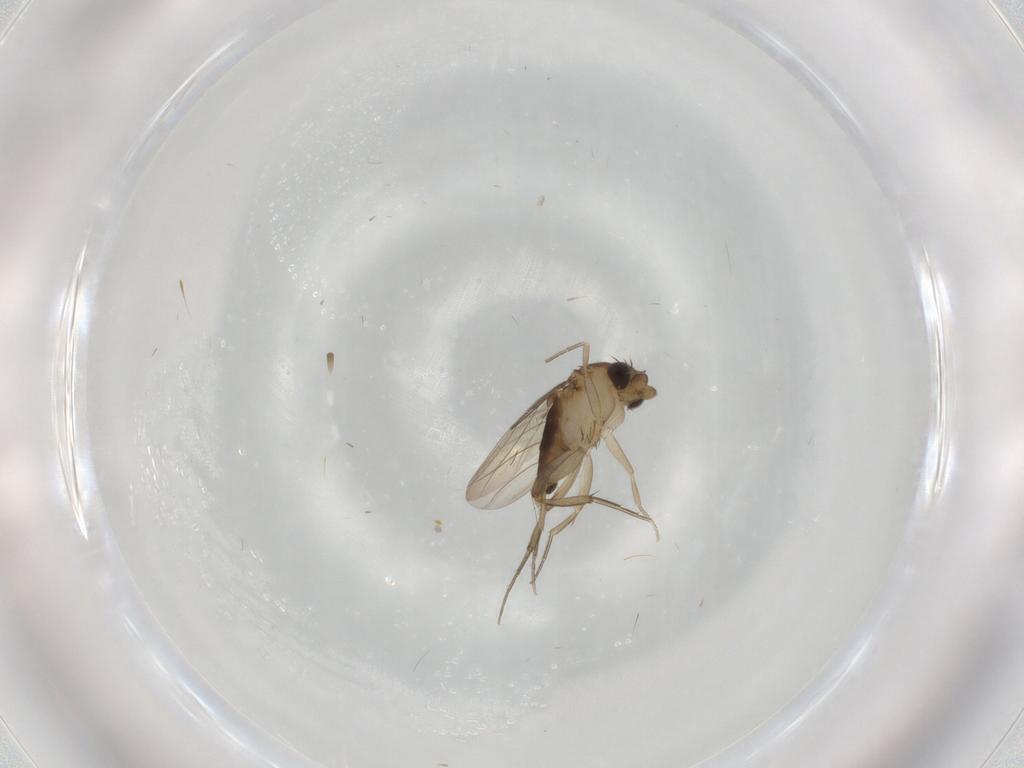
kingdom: Animalia
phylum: Arthropoda
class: Insecta
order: Diptera
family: Phoridae
